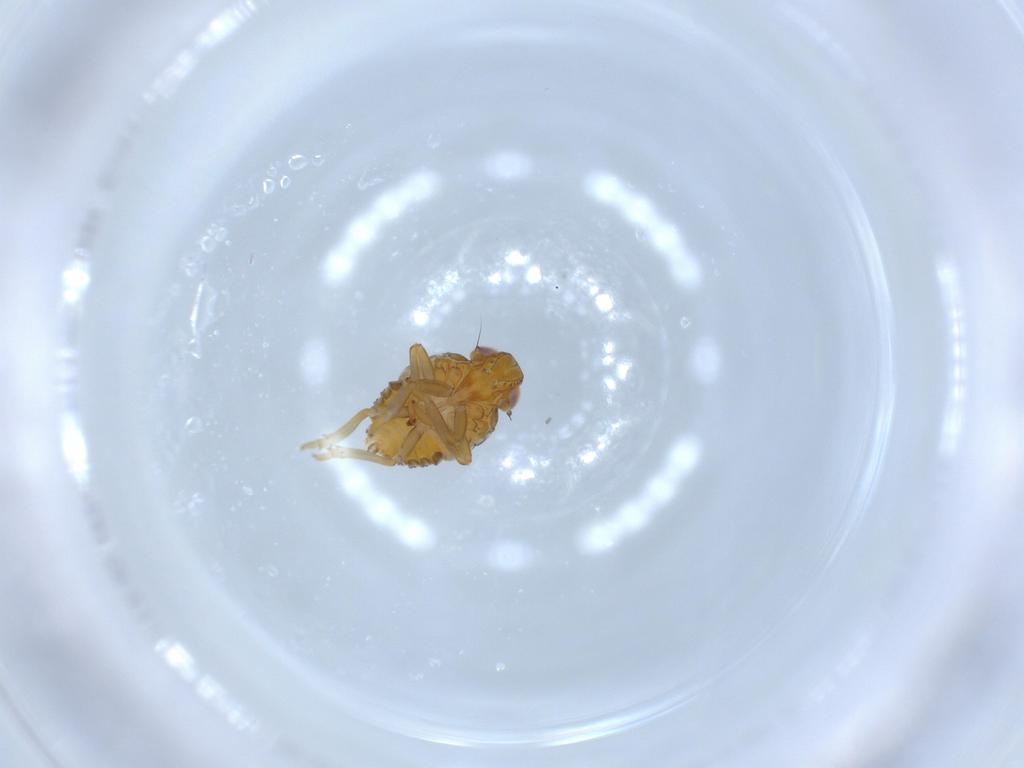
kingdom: Animalia
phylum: Arthropoda
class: Insecta
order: Hemiptera
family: Issidae
